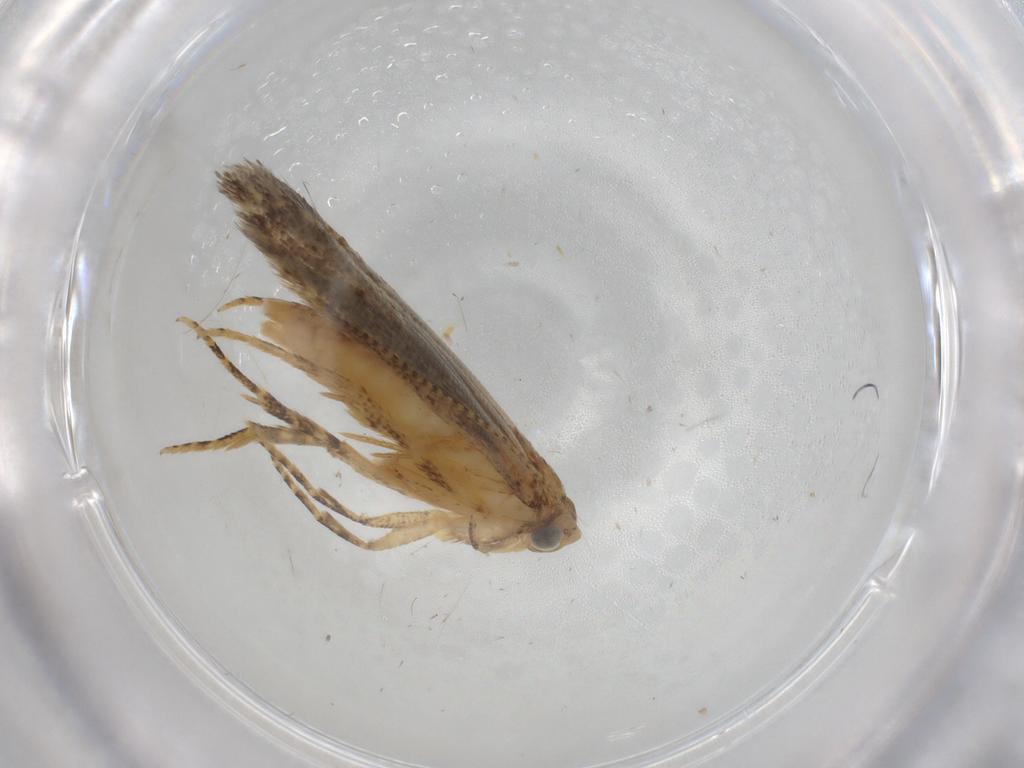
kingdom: Animalia
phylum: Arthropoda
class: Insecta
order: Lepidoptera
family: Gelechiidae
